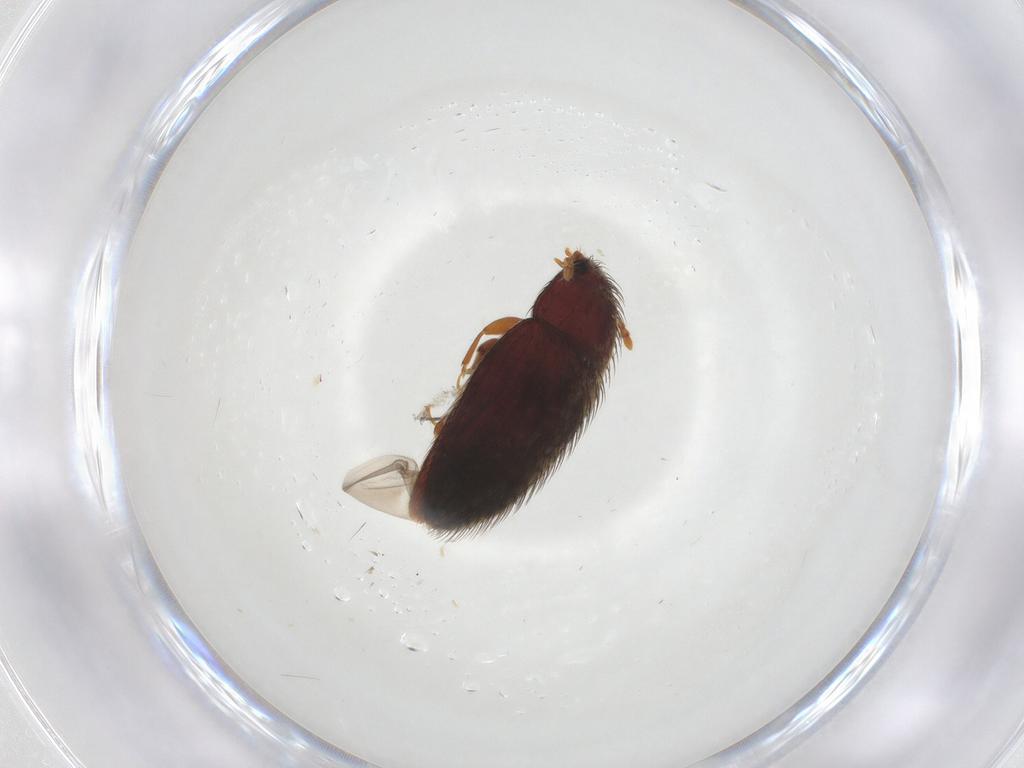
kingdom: Animalia
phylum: Arthropoda
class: Insecta
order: Coleoptera
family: Biphyllidae
